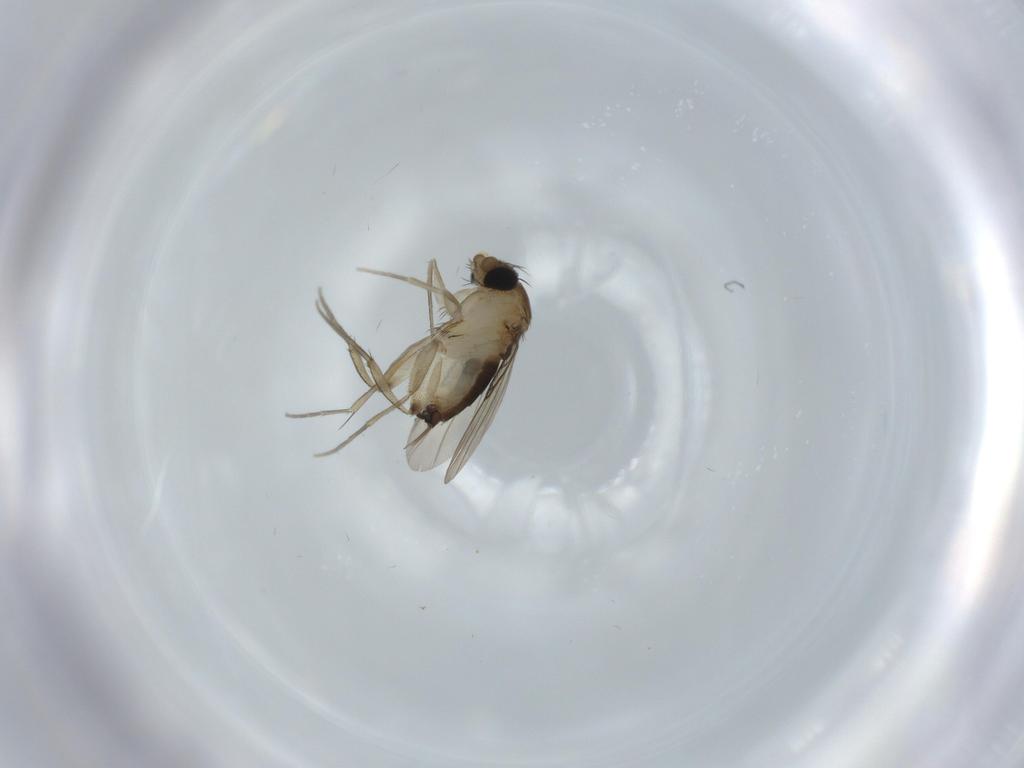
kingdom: Animalia
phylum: Arthropoda
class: Insecta
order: Diptera
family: Phoridae
